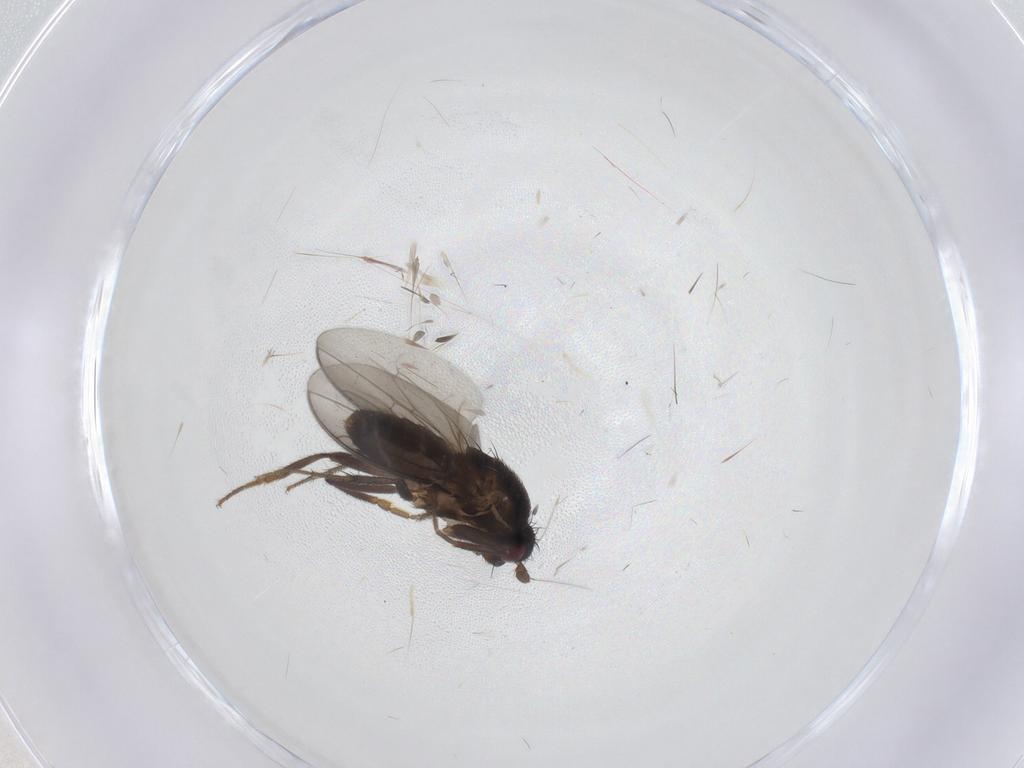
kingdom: Animalia
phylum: Arthropoda
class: Insecta
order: Diptera
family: Sphaeroceridae
